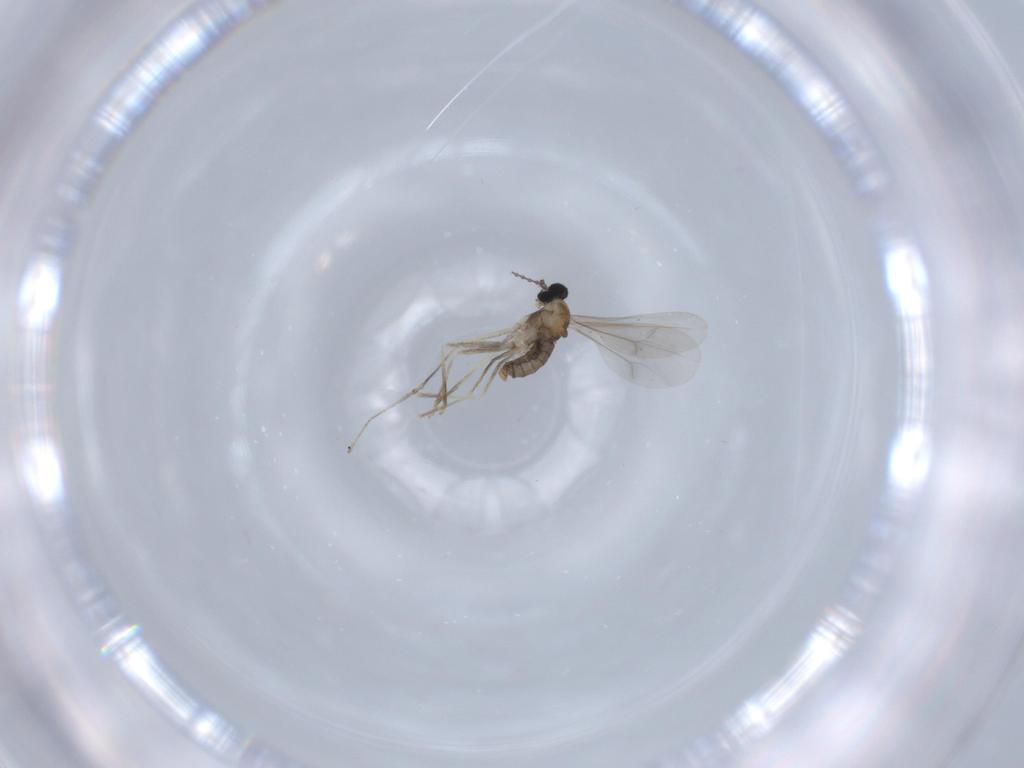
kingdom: Animalia
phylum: Arthropoda
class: Insecta
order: Diptera
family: Cecidomyiidae
